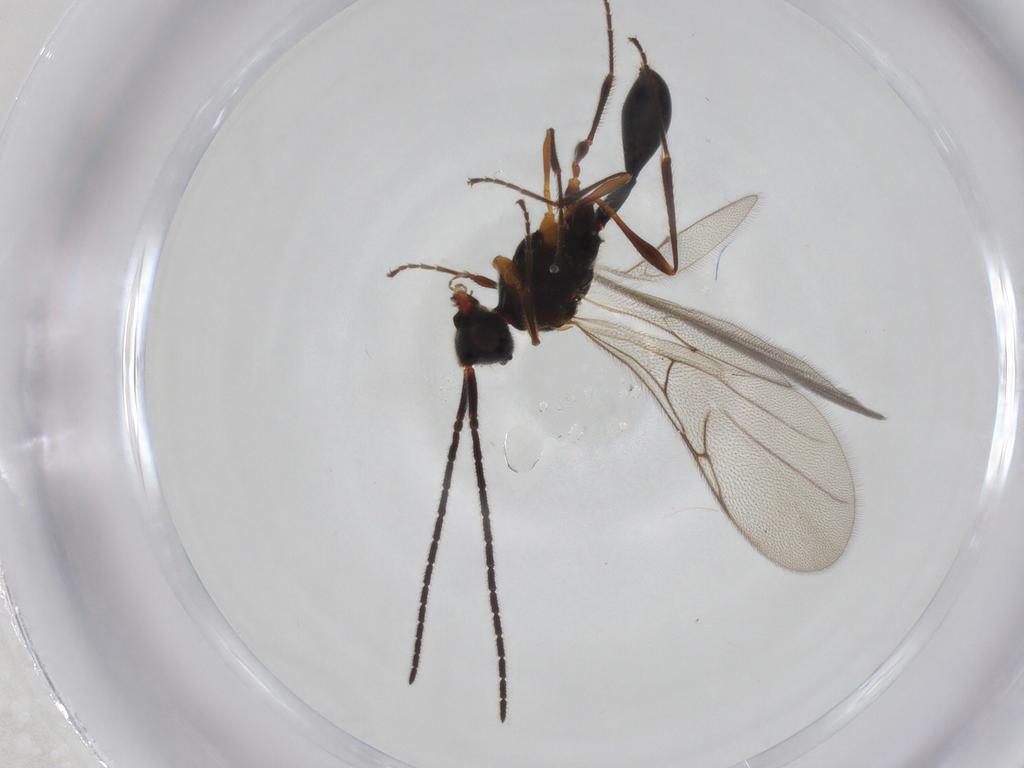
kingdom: Animalia
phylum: Arthropoda
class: Insecta
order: Hymenoptera
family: Diapriidae
